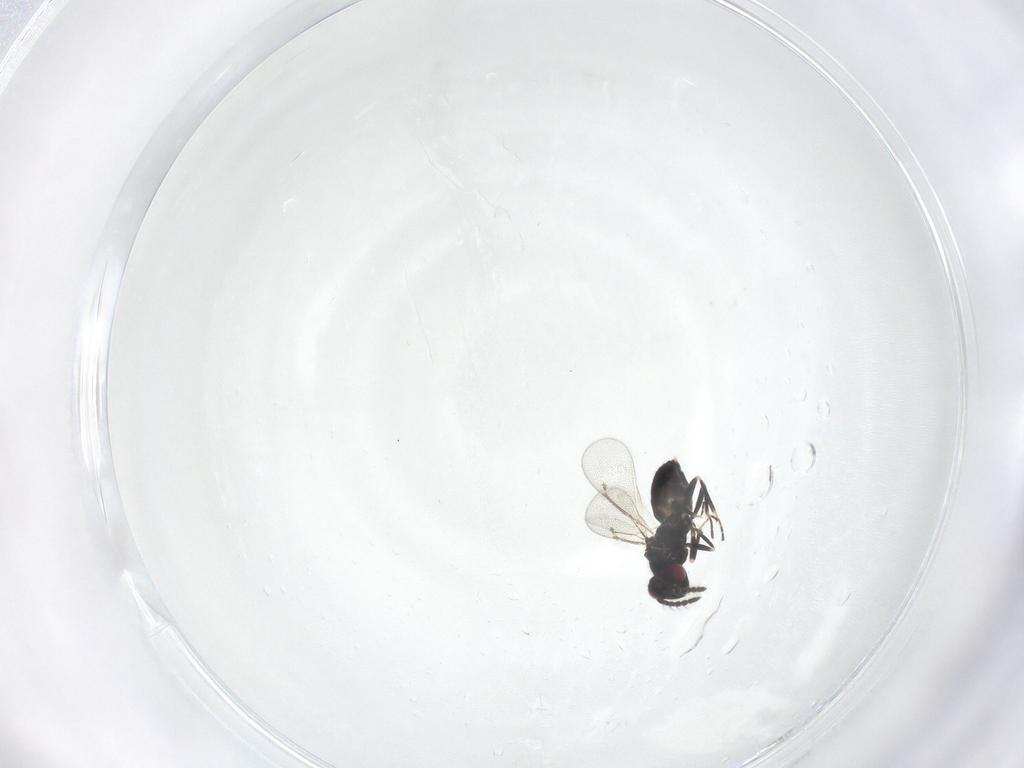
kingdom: Animalia
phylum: Arthropoda
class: Insecta
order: Hymenoptera
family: Eulophidae
